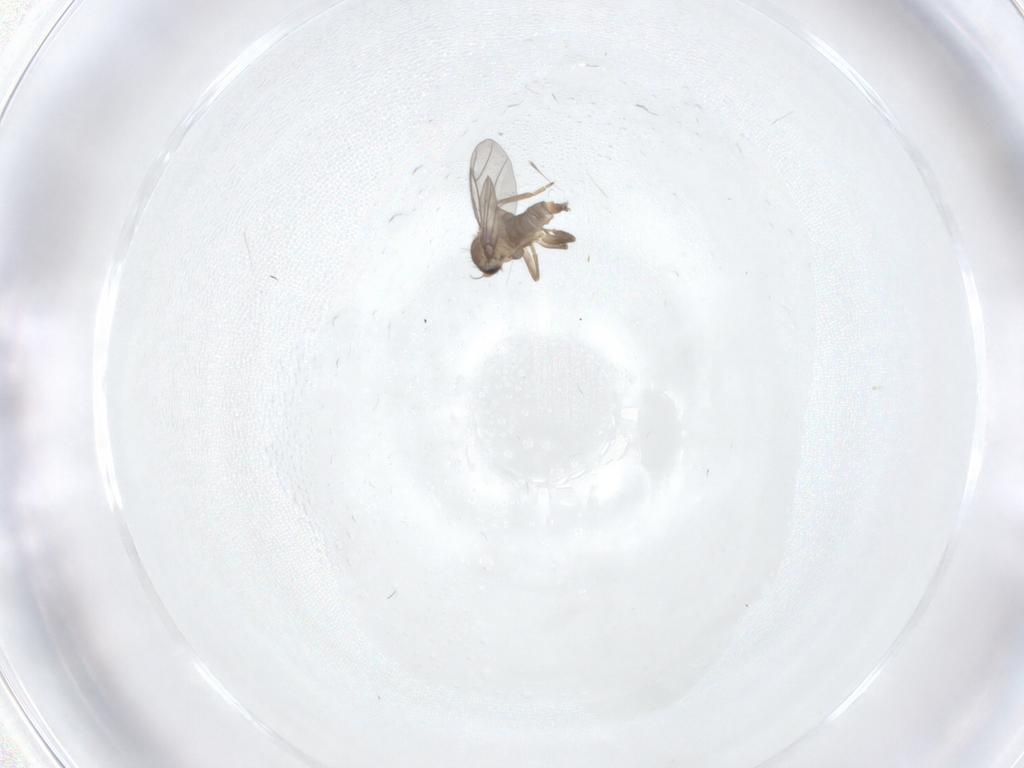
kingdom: Animalia
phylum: Arthropoda
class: Insecta
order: Diptera
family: Cecidomyiidae
